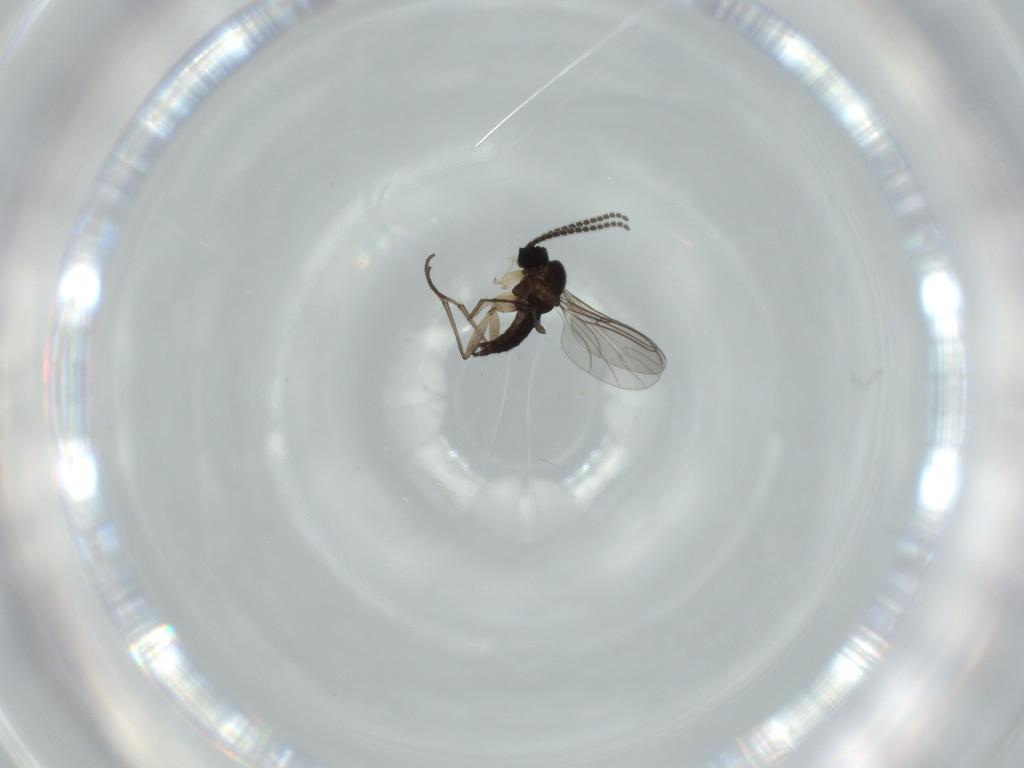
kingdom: Animalia
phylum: Arthropoda
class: Insecta
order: Diptera
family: Sciaridae
